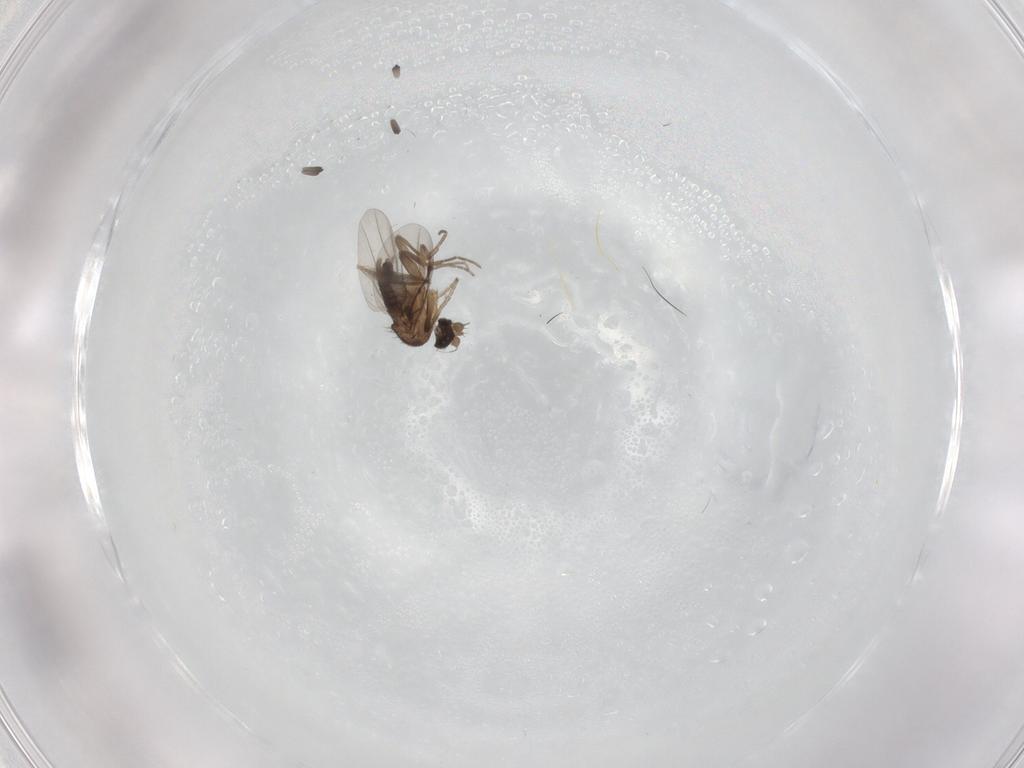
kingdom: Animalia
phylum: Arthropoda
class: Insecta
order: Diptera
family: Phoridae
